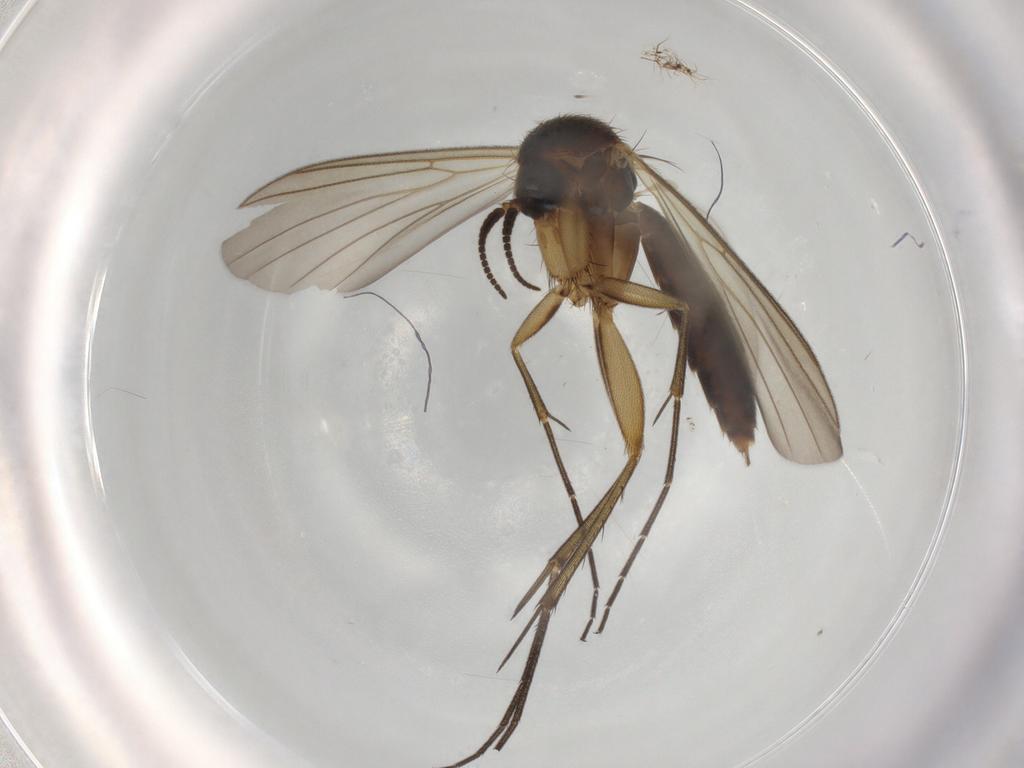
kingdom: Animalia
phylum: Arthropoda
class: Insecta
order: Diptera
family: Mycetophilidae
